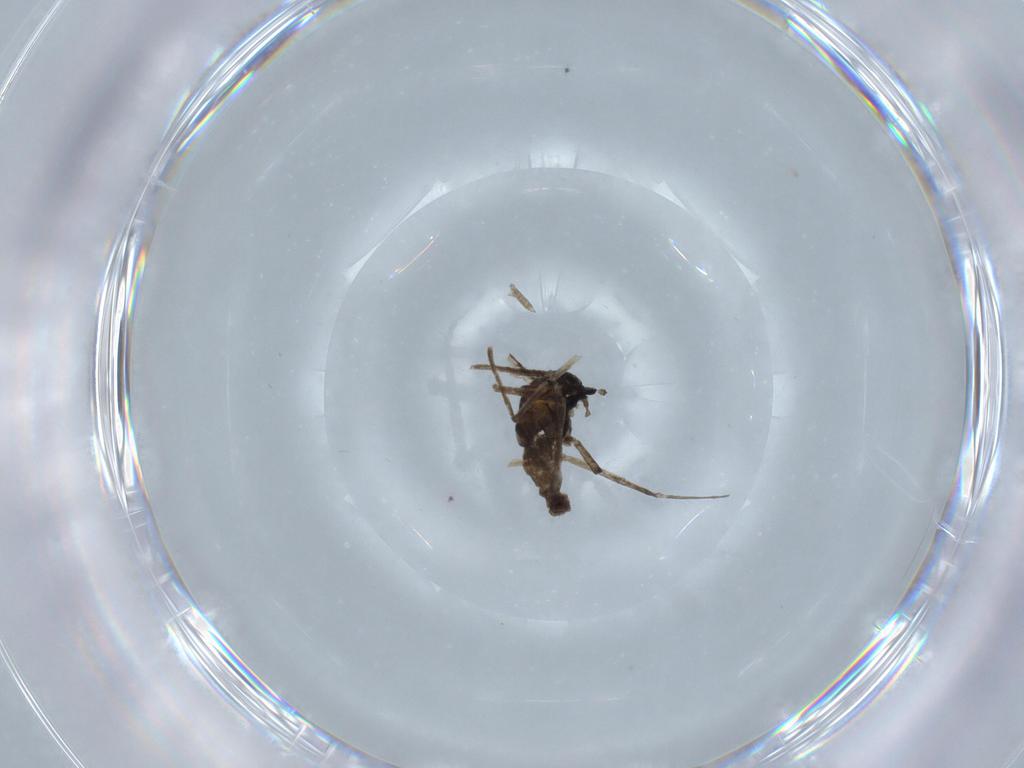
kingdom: Animalia
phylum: Arthropoda
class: Insecta
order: Diptera
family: Cecidomyiidae
